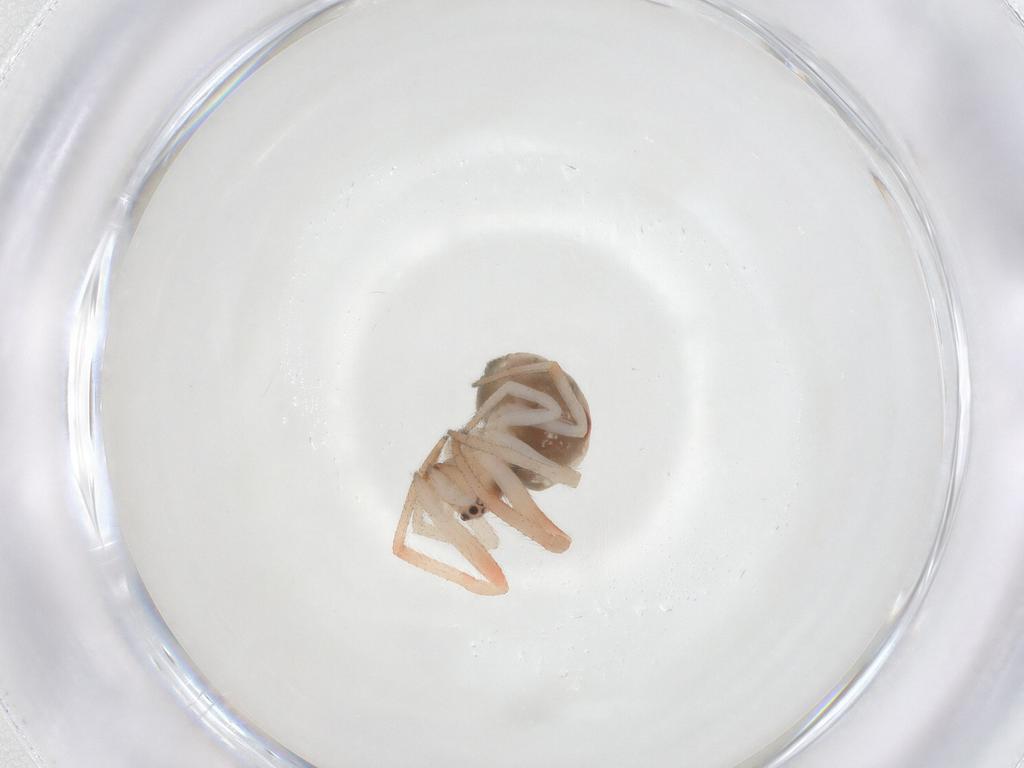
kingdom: Animalia
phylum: Arthropoda
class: Arachnida
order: Araneae
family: Theridiidae
